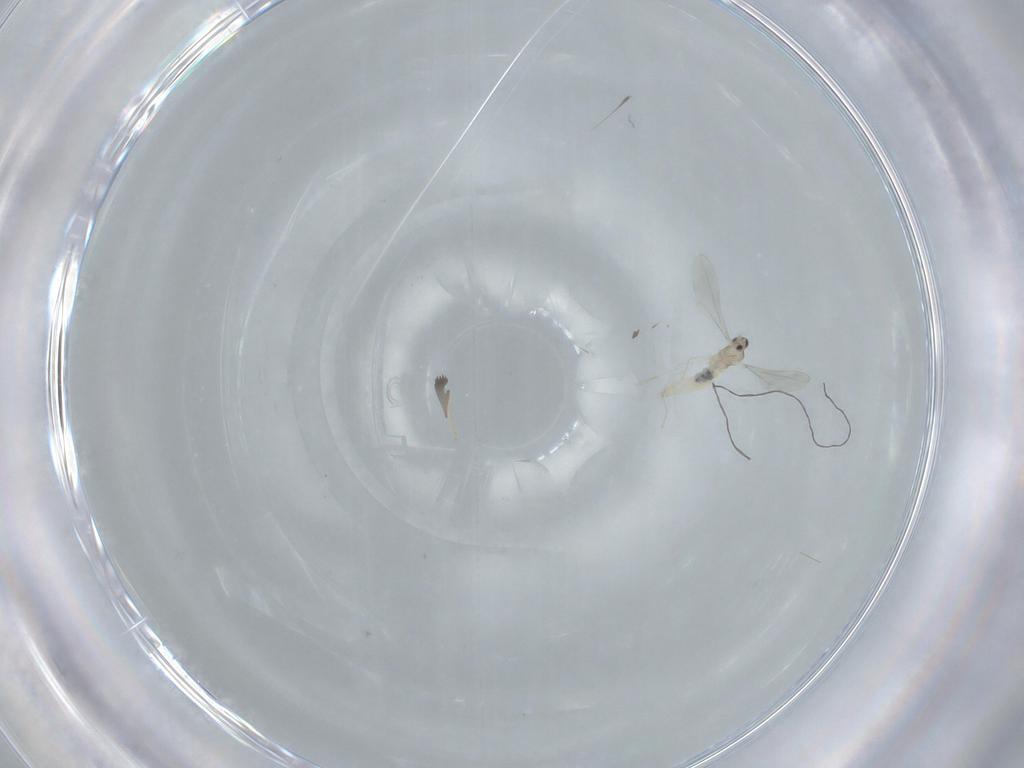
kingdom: Animalia
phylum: Arthropoda
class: Insecta
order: Diptera
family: Cecidomyiidae
